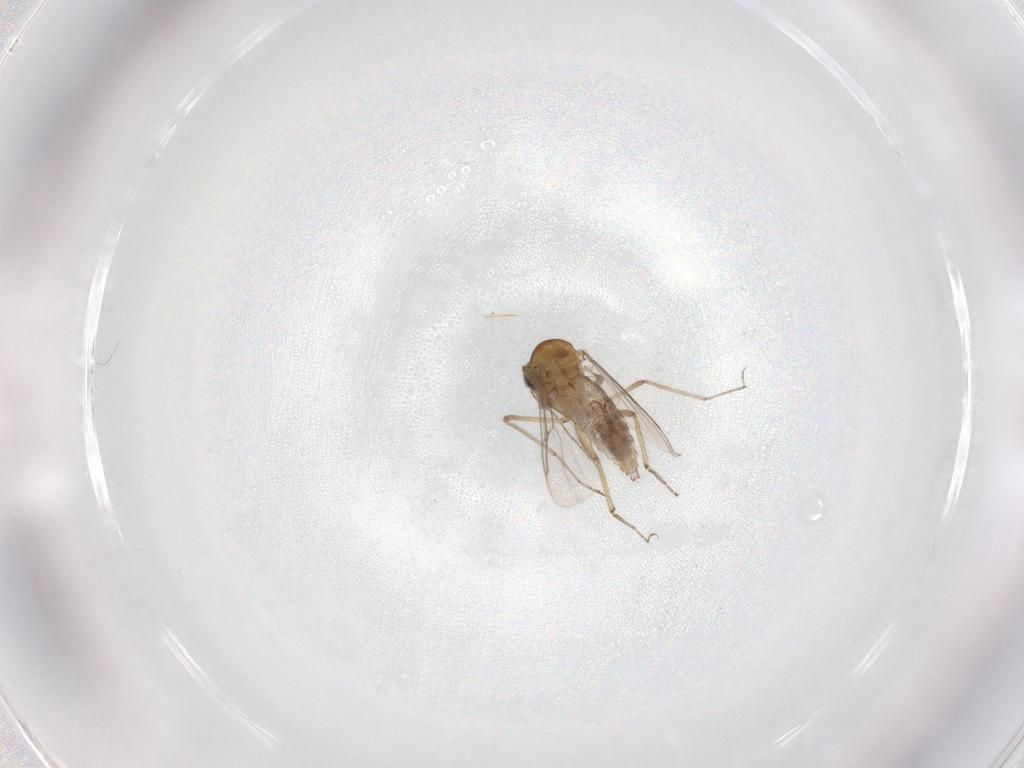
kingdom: Animalia
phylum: Arthropoda
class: Insecta
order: Diptera
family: Ceratopogonidae
